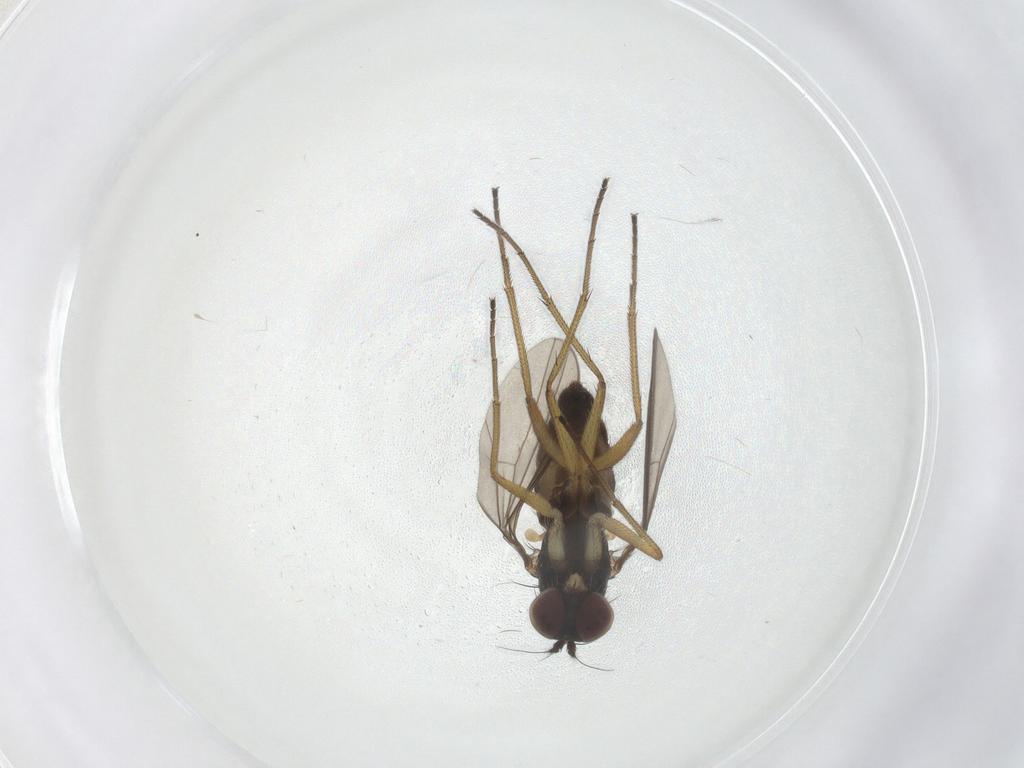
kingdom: Animalia
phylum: Arthropoda
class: Insecta
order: Diptera
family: Dolichopodidae
